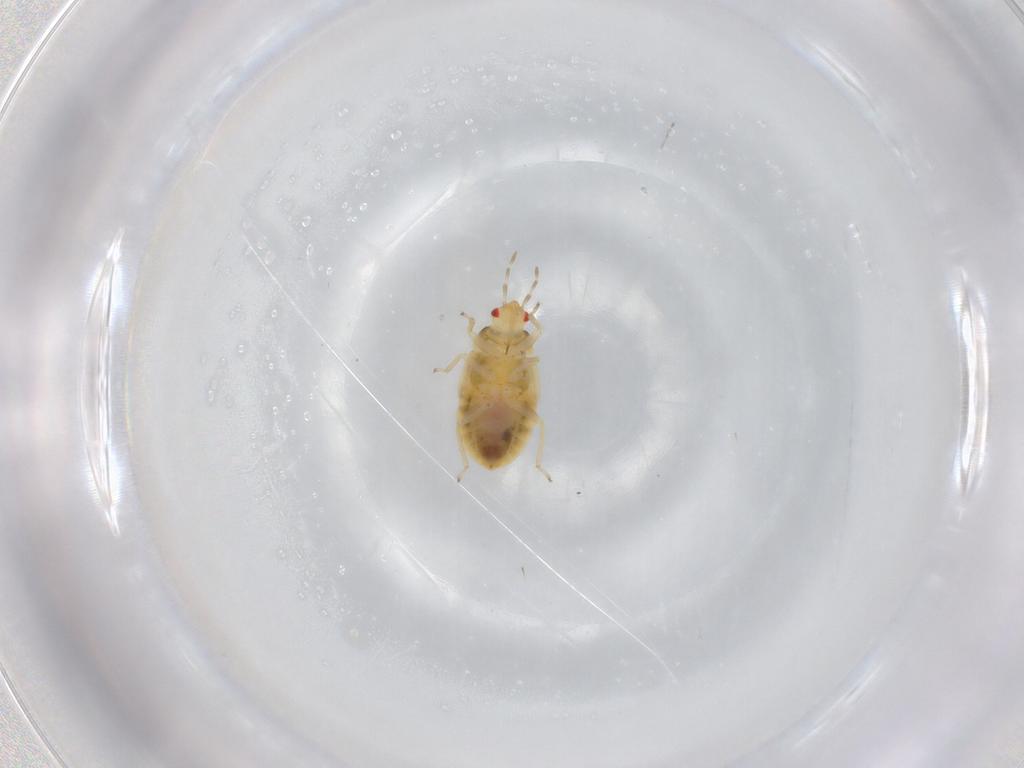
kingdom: Animalia
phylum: Arthropoda
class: Insecta
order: Hemiptera
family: Anthocoridae
